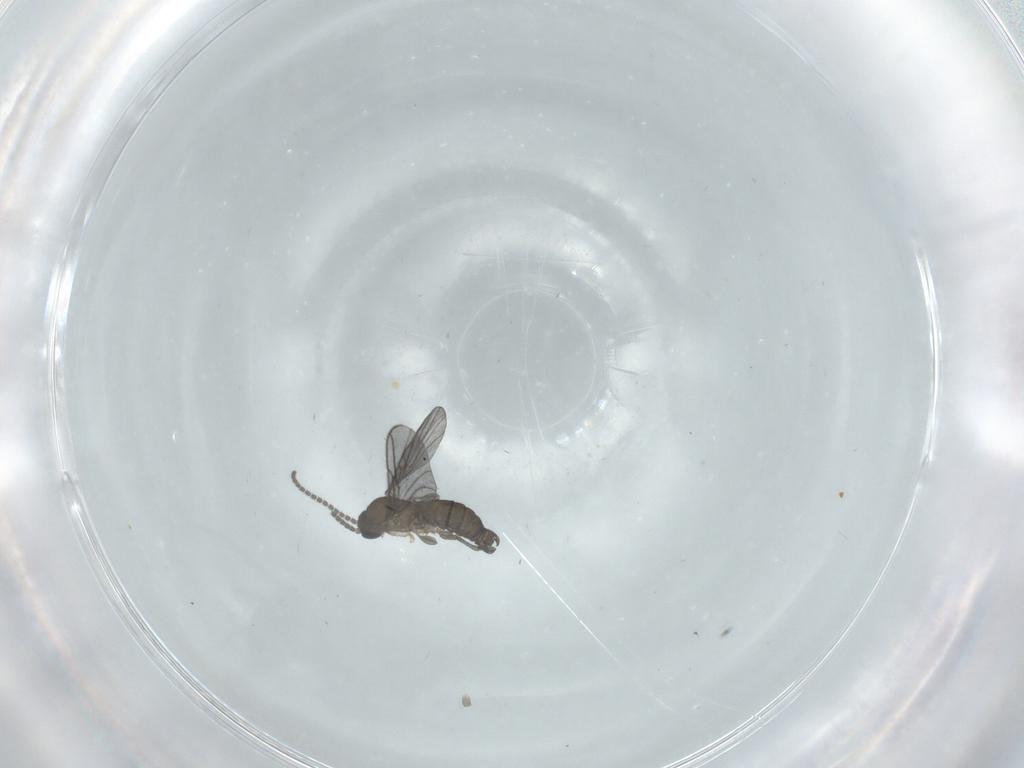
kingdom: Animalia
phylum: Arthropoda
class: Insecta
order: Diptera
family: Sciaridae
